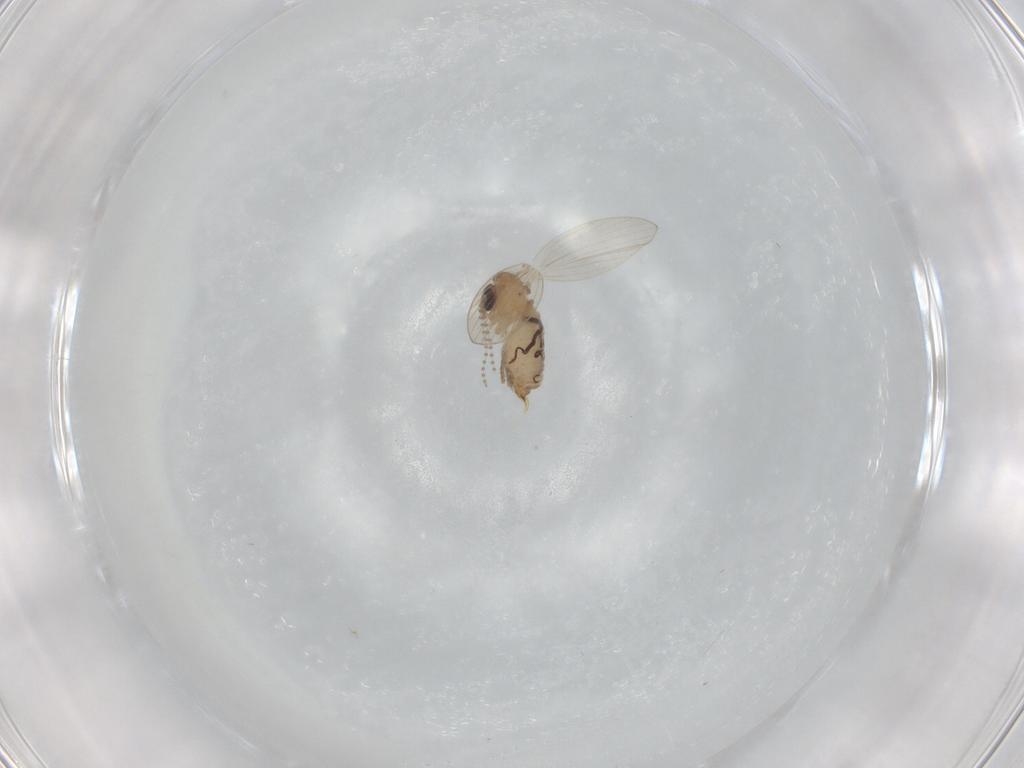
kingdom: Animalia
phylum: Arthropoda
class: Insecta
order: Diptera
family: Psychodidae
